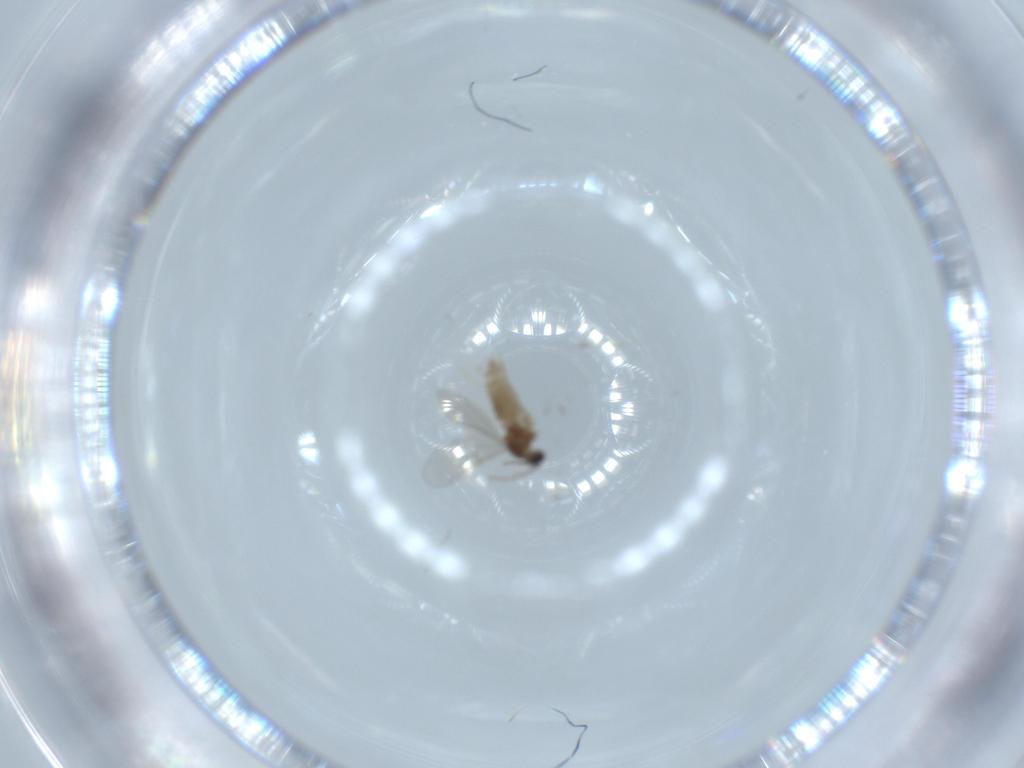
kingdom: Animalia
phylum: Arthropoda
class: Insecta
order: Diptera
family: Cecidomyiidae
